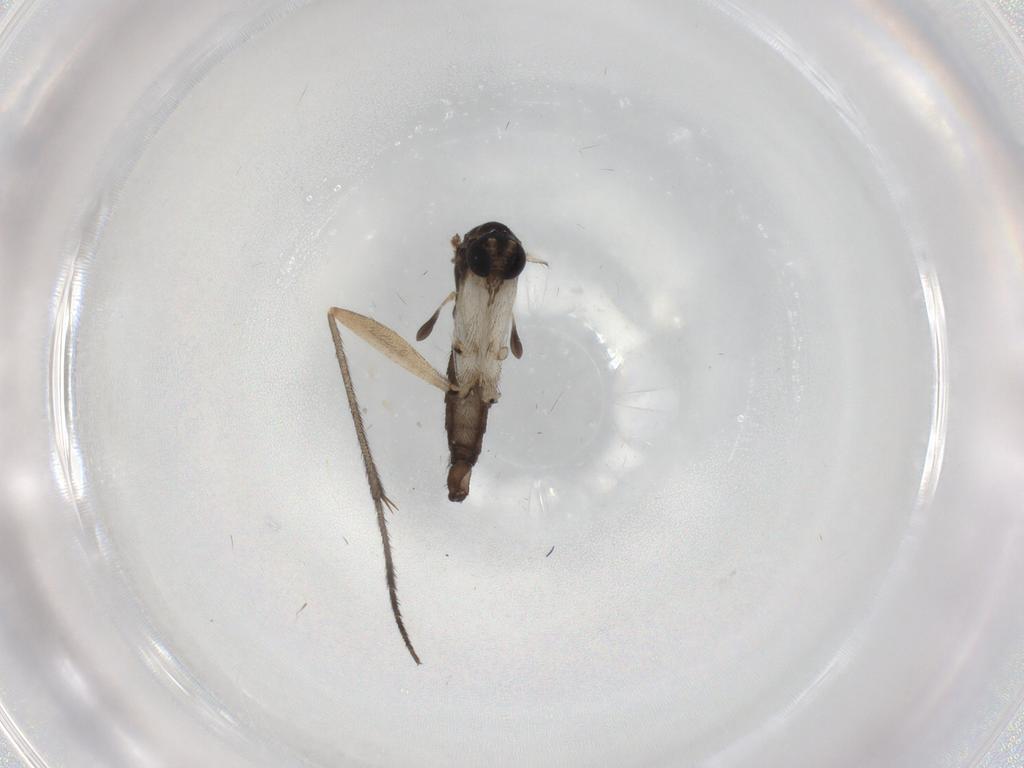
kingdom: Animalia
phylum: Arthropoda
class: Insecta
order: Diptera
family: Sciaridae
